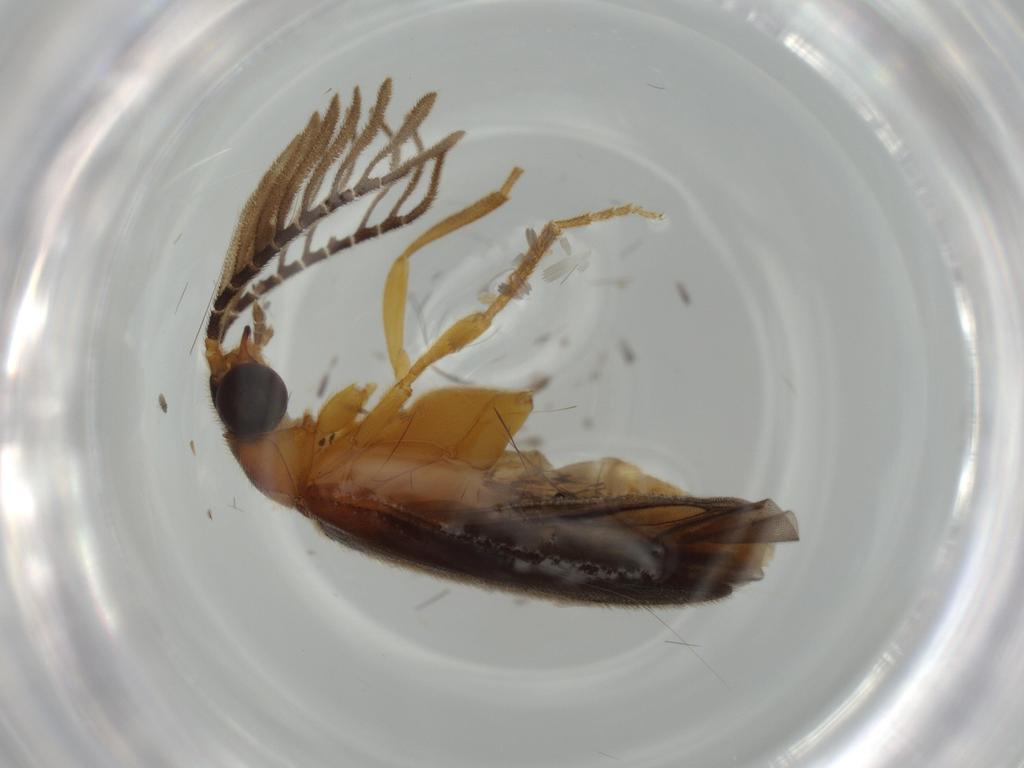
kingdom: Animalia
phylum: Arthropoda
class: Insecta
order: Coleoptera
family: Lampyridae
